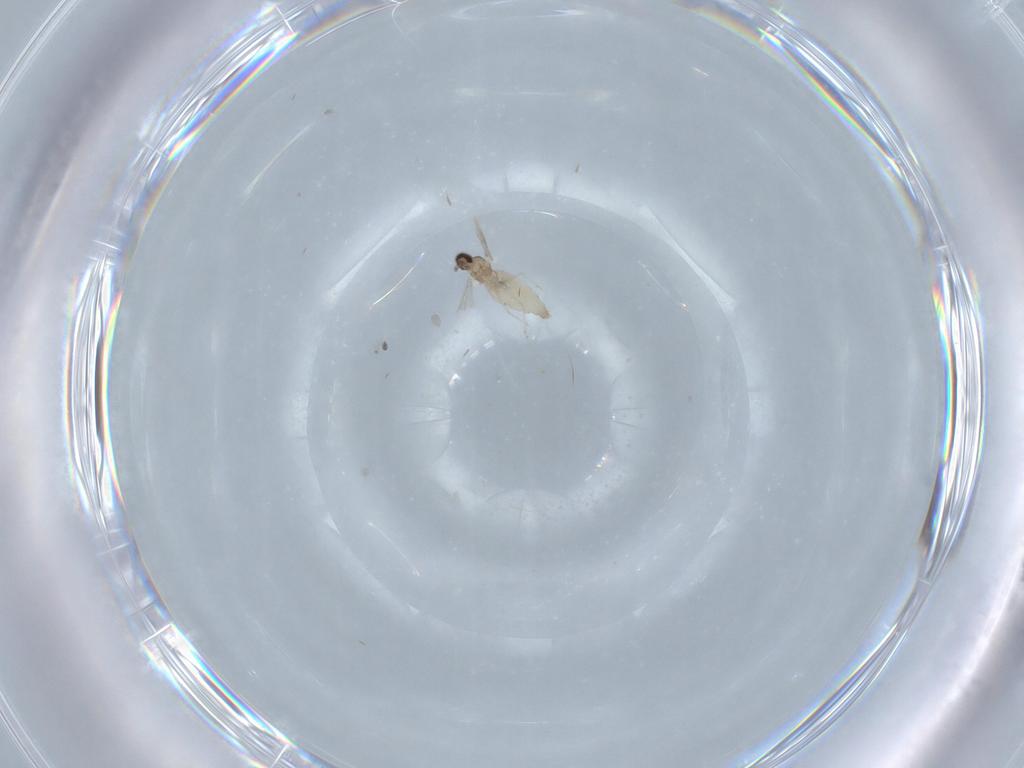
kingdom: Animalia
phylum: Arthropoda
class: Insecta
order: Diptera
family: Cecidomyiidae
